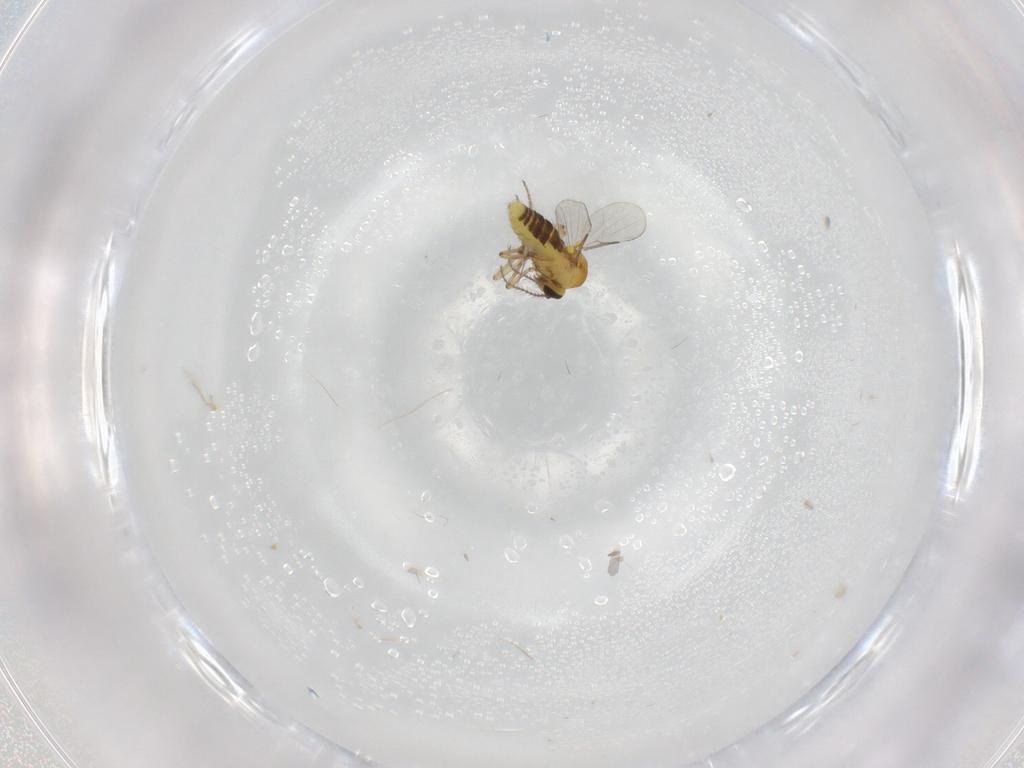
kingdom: Animalia
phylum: Arthropoda
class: Insecta
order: Diptera
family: Ceratopogonidae
